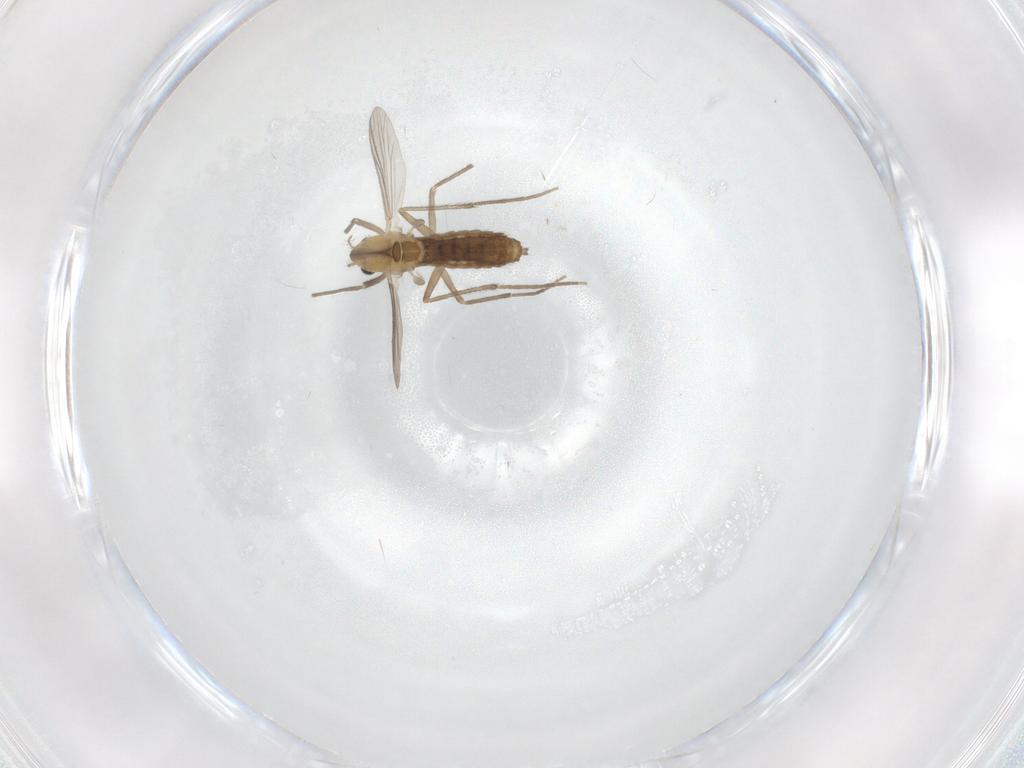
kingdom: Animalia
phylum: Arthropoda
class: Insecta
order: Diptera
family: Chironomidae
